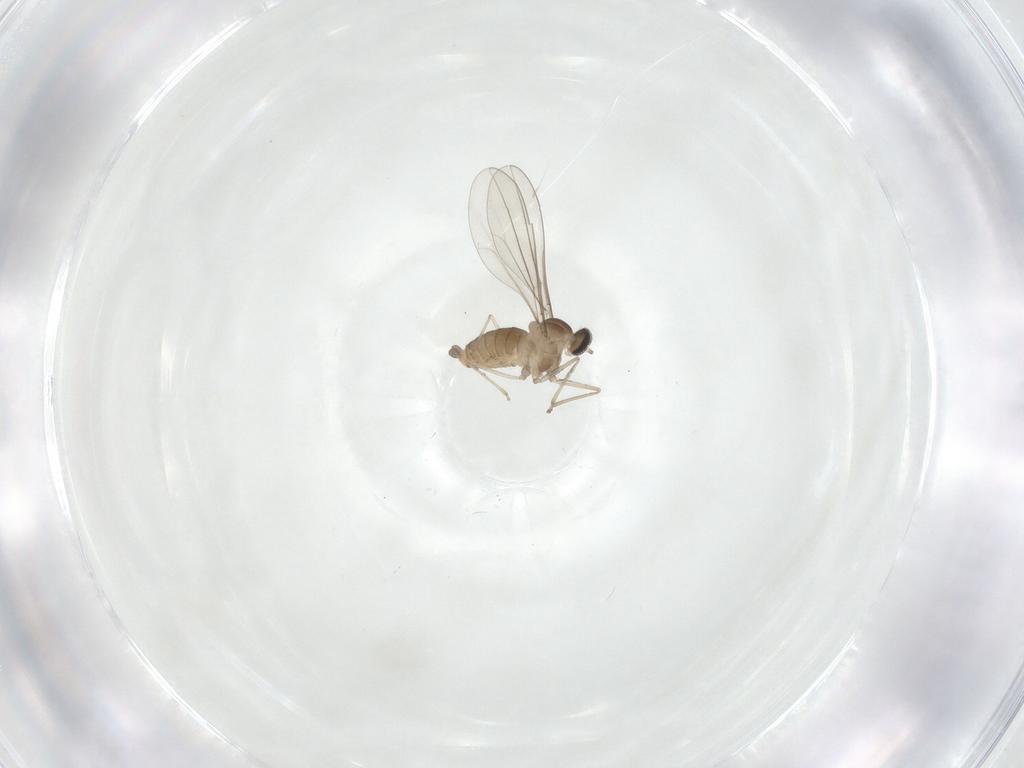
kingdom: Animalia
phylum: Arthropoda
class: Insecta
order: Diptera
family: Cecidomyiidae
